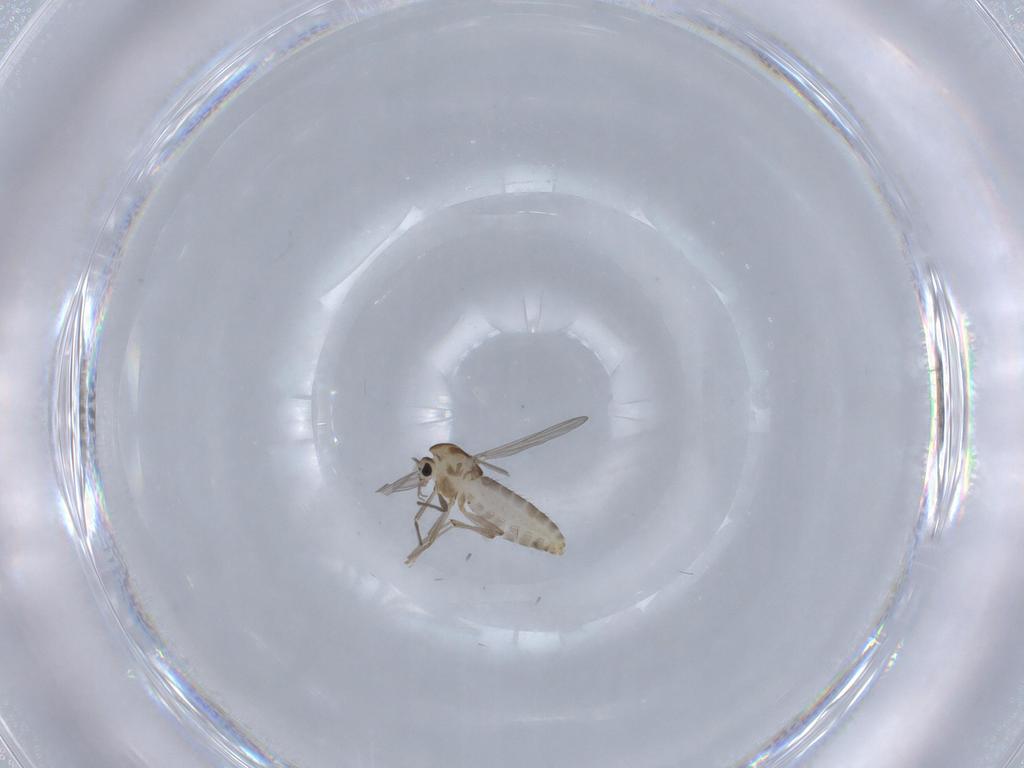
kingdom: Animalia
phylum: Arthropoda
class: Insecta
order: Diptera
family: Chironomidae
